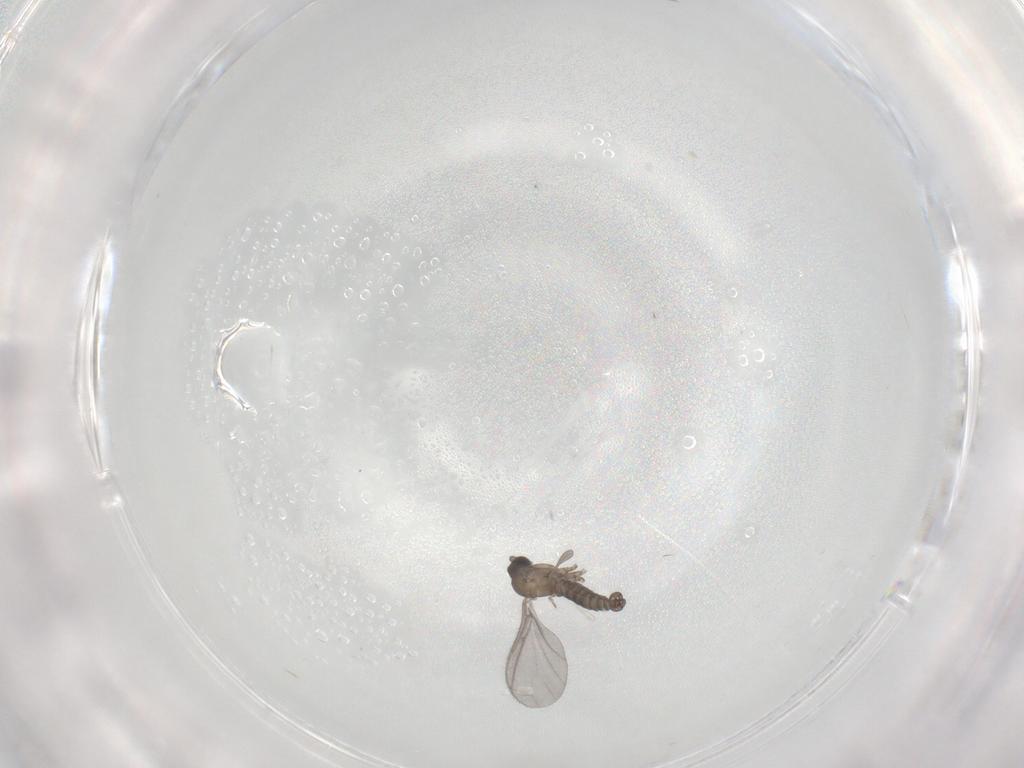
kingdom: Animalia
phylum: Arthropoda
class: Insecta
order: Diptera
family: Sciaridae
